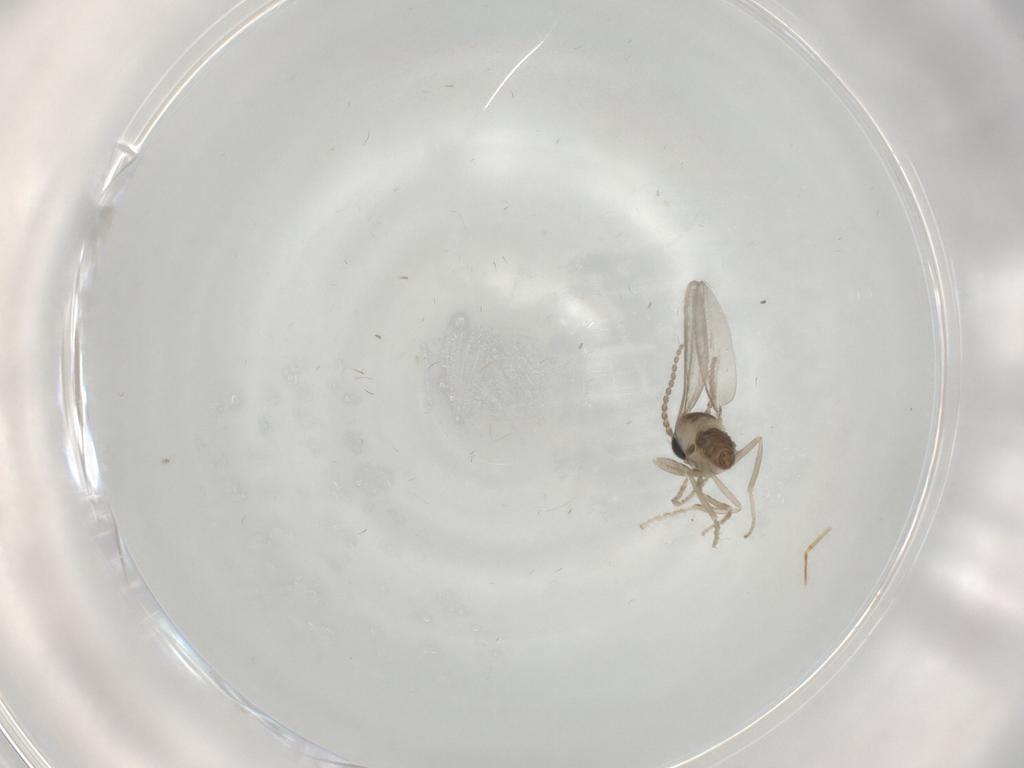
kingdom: Animalia
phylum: Arthropoda
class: Insecta
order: Diptera
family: Cecidomyiidae
